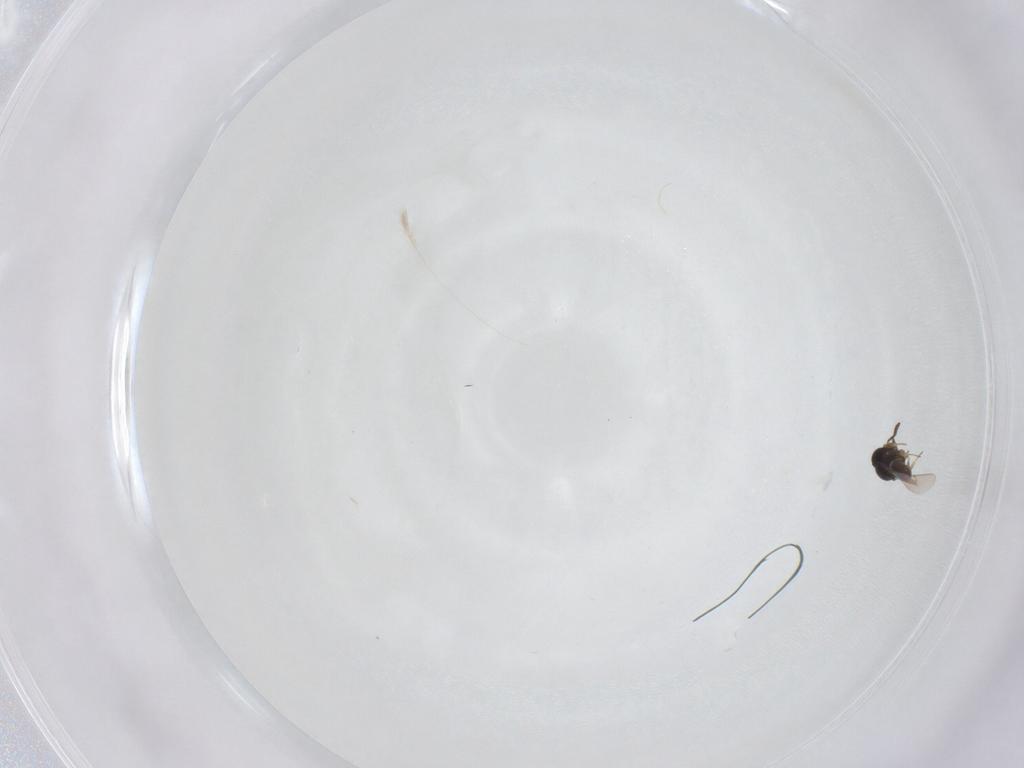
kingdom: Animalia
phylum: Arthropoda
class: Insecta
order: Hymenoptera
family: Scelionidae
